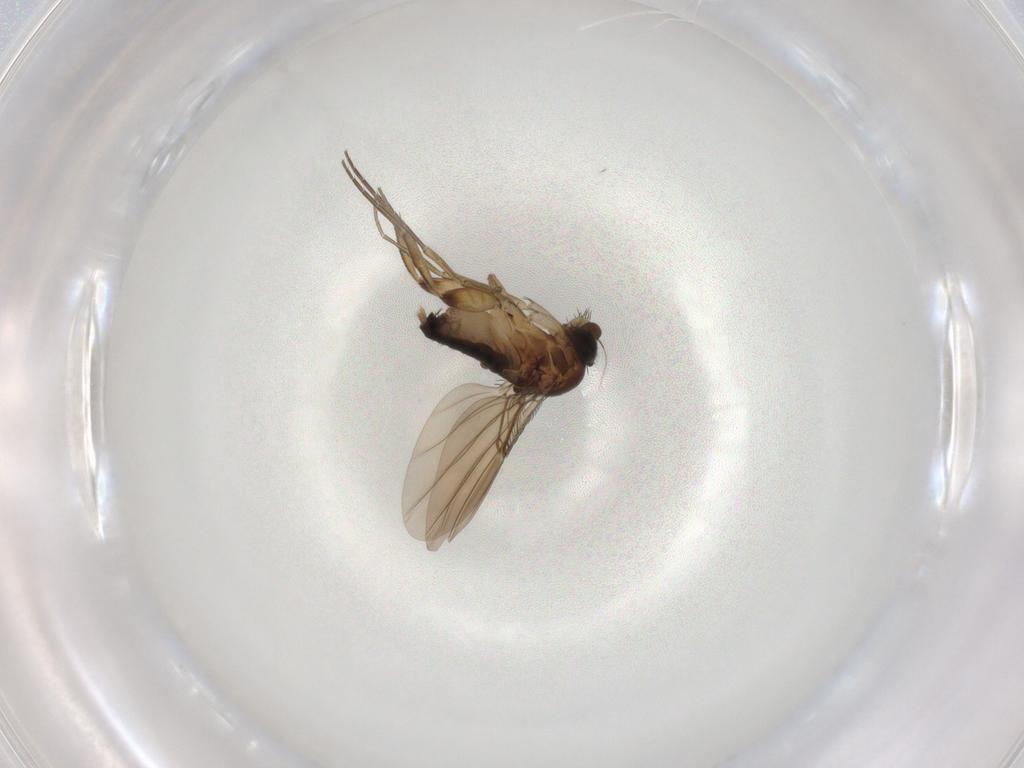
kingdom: Animalia
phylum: Arthropoda
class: Insecta
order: Diptera
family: Phoridae
